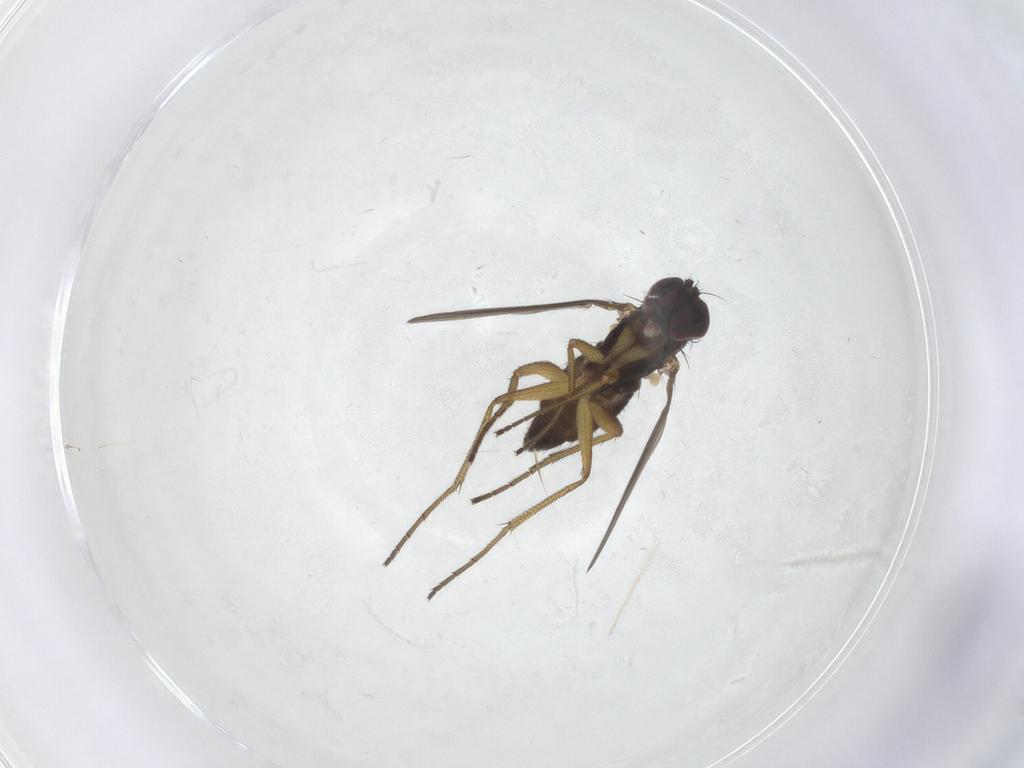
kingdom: Animalia
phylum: Arthropoda
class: Insecta
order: Diptera
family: Dolichopodidae
